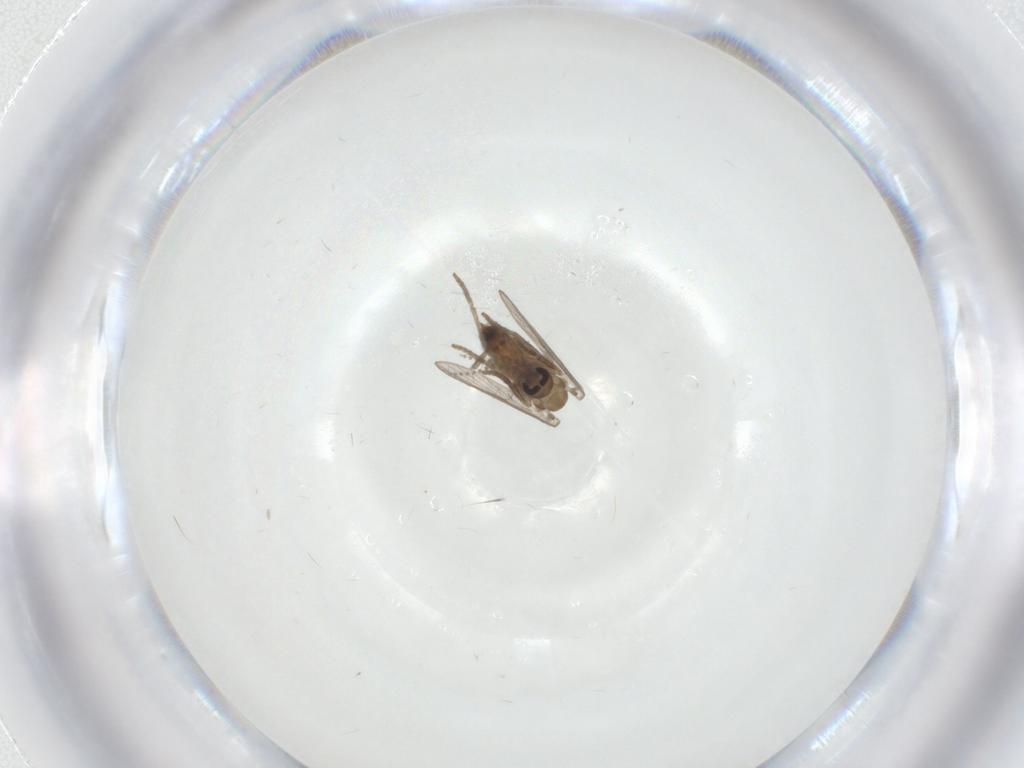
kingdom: Animalia
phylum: Arthropoda
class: Insecta
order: Diptera
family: Psychodidae
